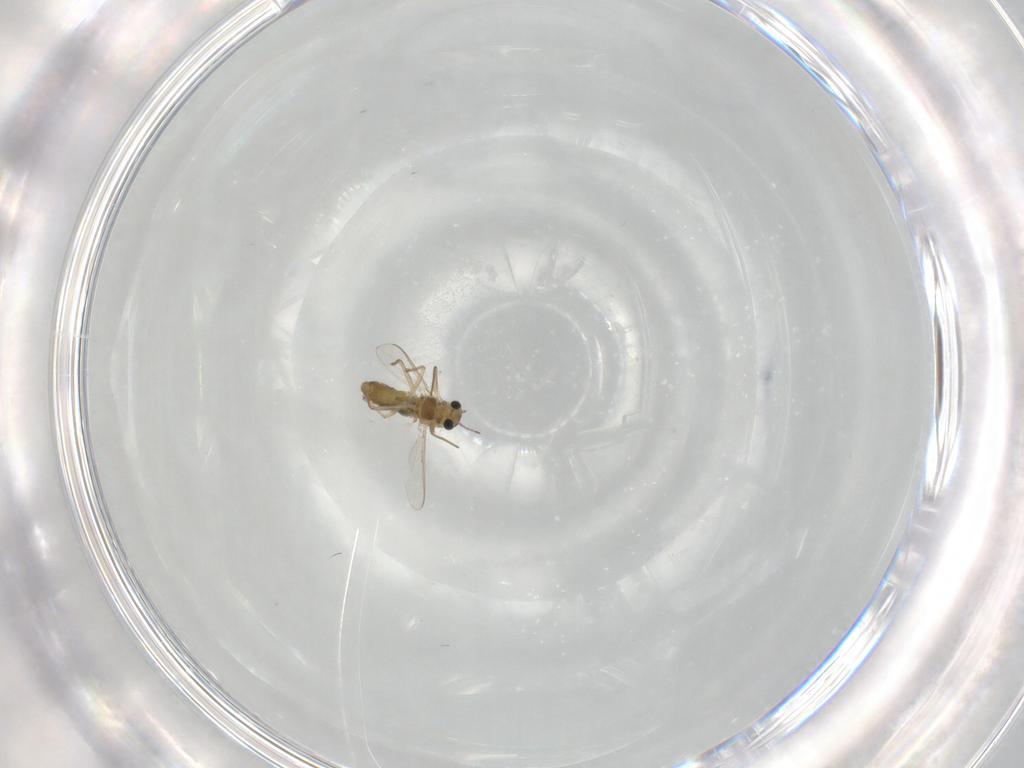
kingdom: Animalia
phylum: Arthropoda
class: Insecta
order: Diptera
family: Chironomidae
